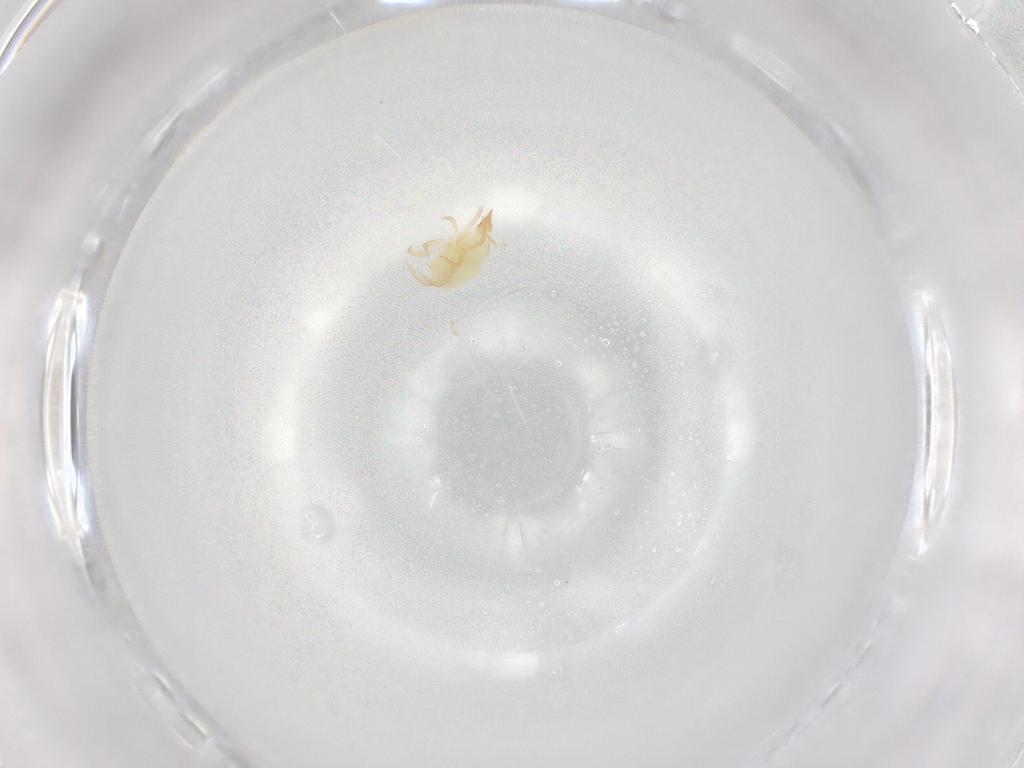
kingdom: Animalia
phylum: Arthropoda
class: Arachnida
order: Trombidiformes
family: Bdellidae
